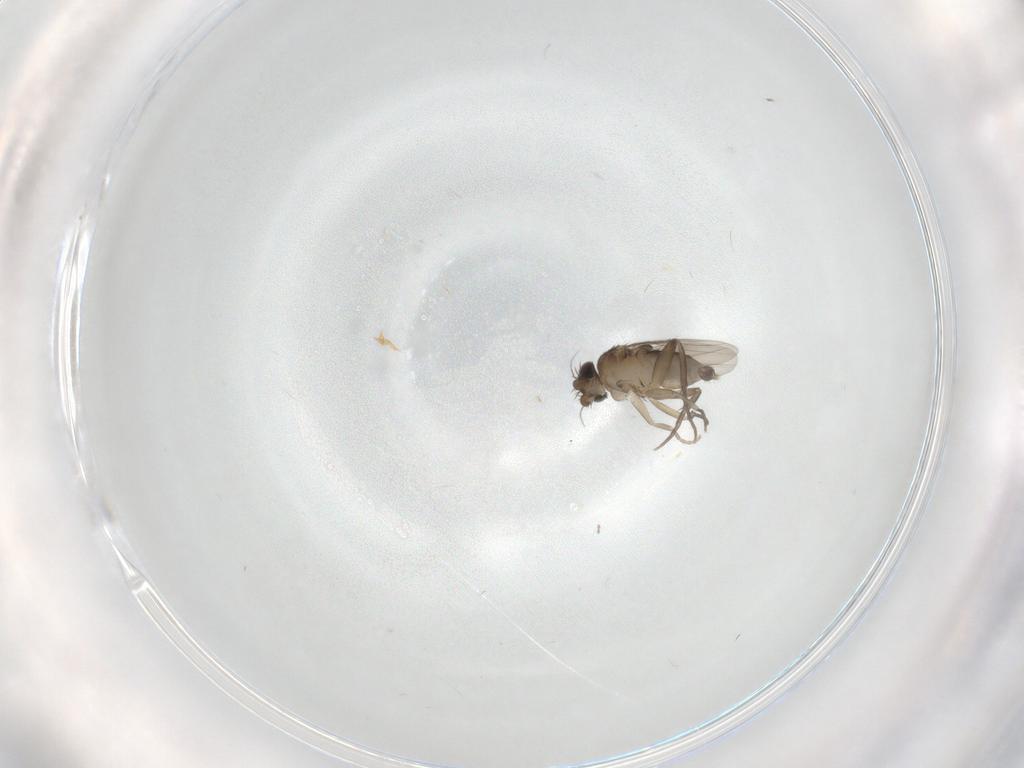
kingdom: Animalia
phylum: Arthropoda
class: Insecta
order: Diptera
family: Phoridae
